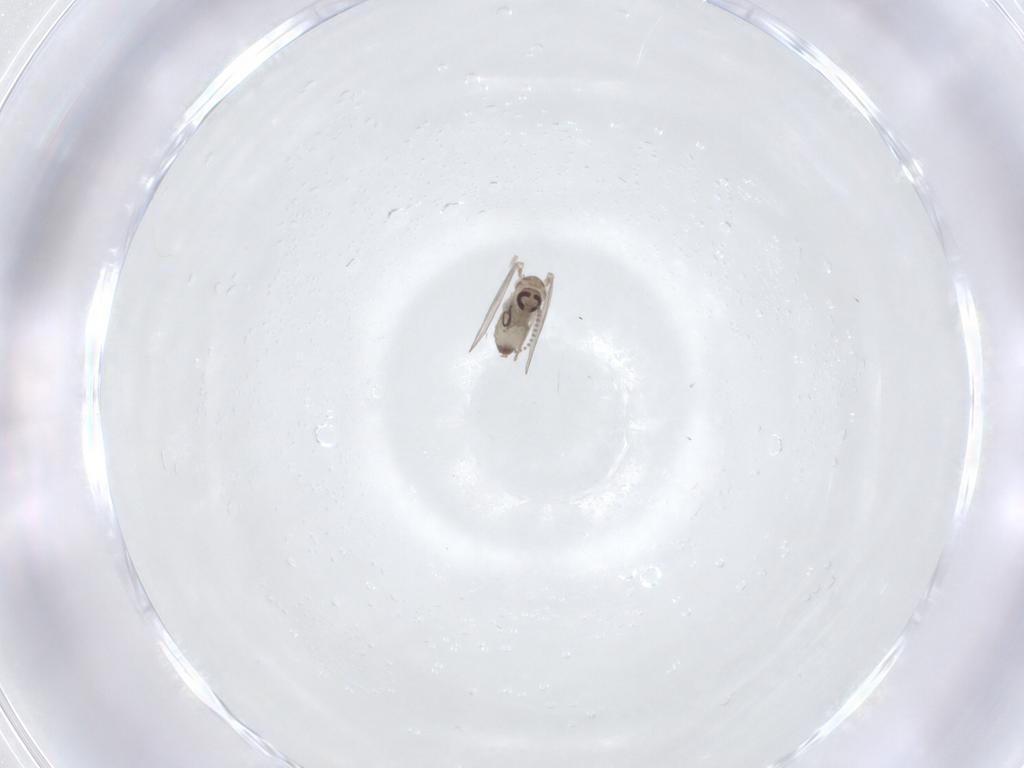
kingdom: Animalia
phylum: Arthropoda
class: Insecta
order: Diptera
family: Psychodidae
